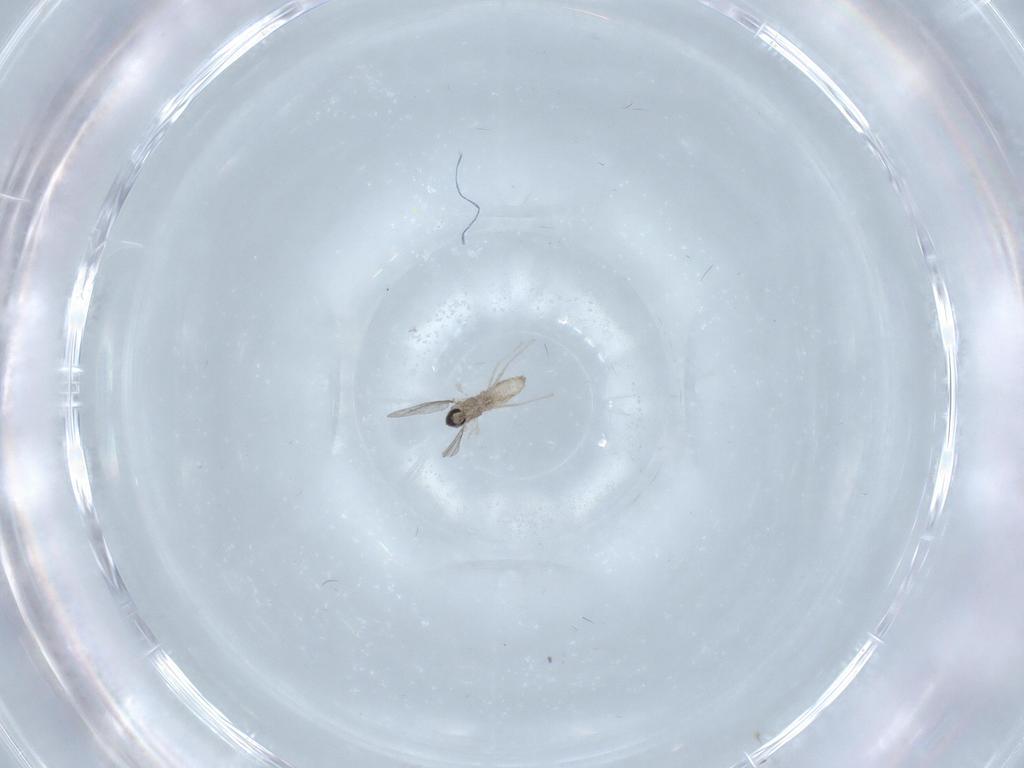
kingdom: Animalia
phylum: Arthropoda
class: Insecta
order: Diptera
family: Cecidomyiidae
